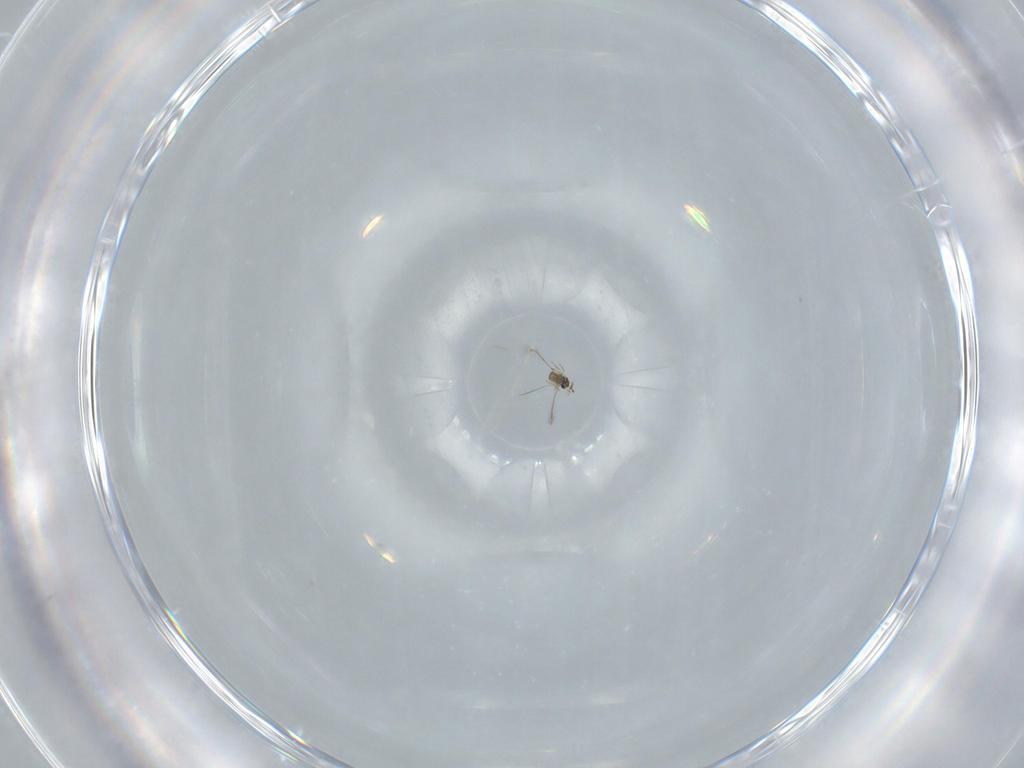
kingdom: Animalia
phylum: Arthropoda
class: Insecta
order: Hymenoptera
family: Mymaridae
